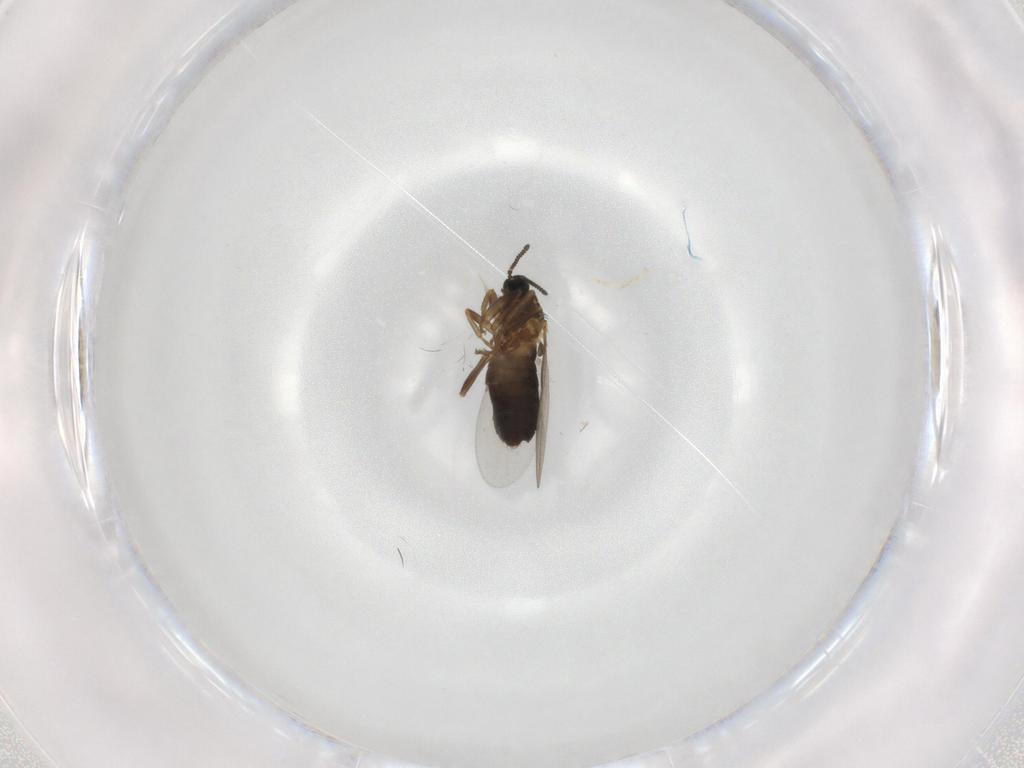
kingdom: Animalia
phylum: Arthropoda
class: Insecta
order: Diptera
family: Scatopsidae
